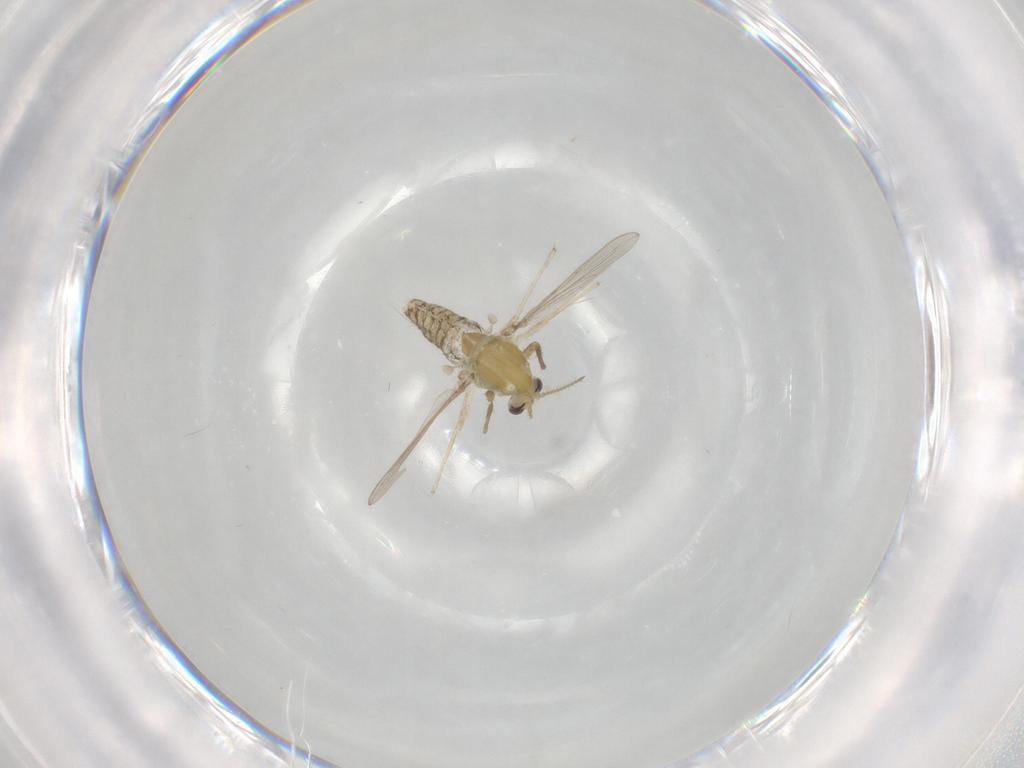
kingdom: Animalia
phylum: Arthropoda
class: Insecta
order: Diptera
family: Chironomidae
